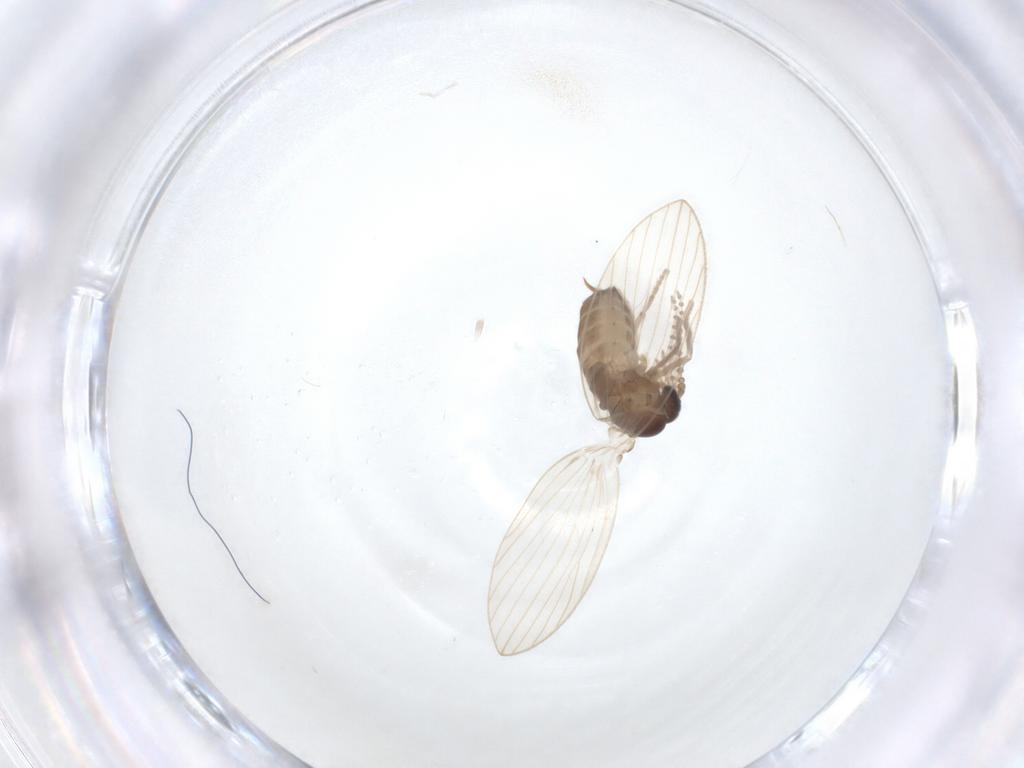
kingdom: Animalia
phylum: Arthropoda
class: Insecta
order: Diptera
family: Psychodidae
